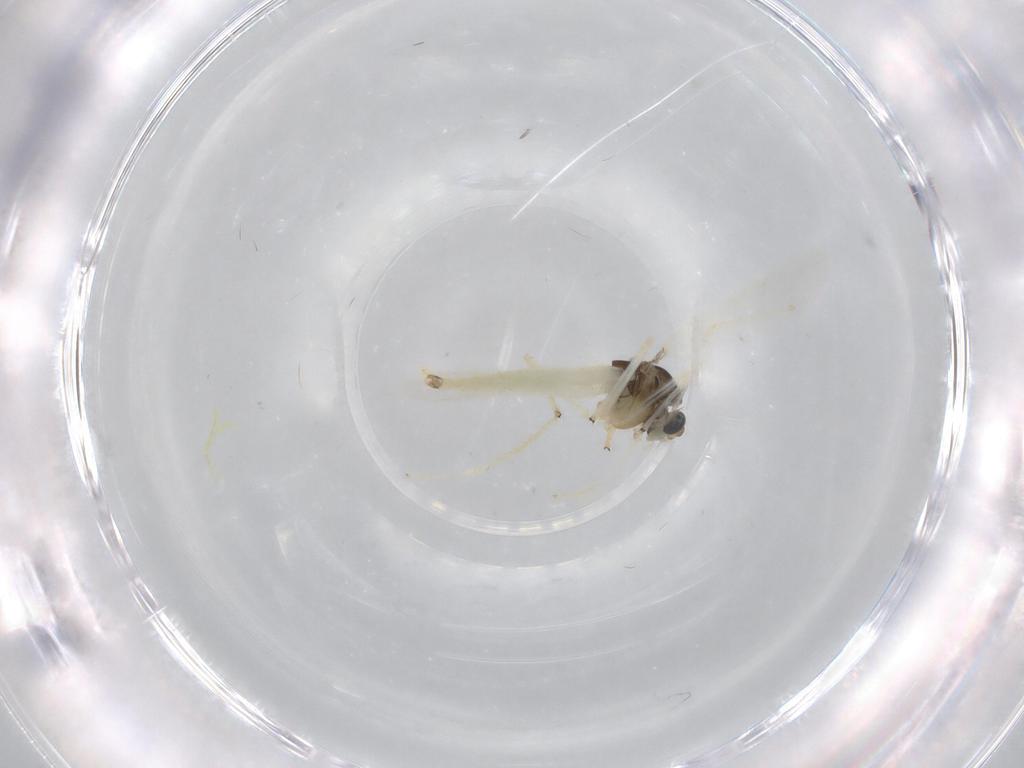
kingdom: Animalia
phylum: Arthropoda
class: Insecta
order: Diptera
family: Chironomidae
